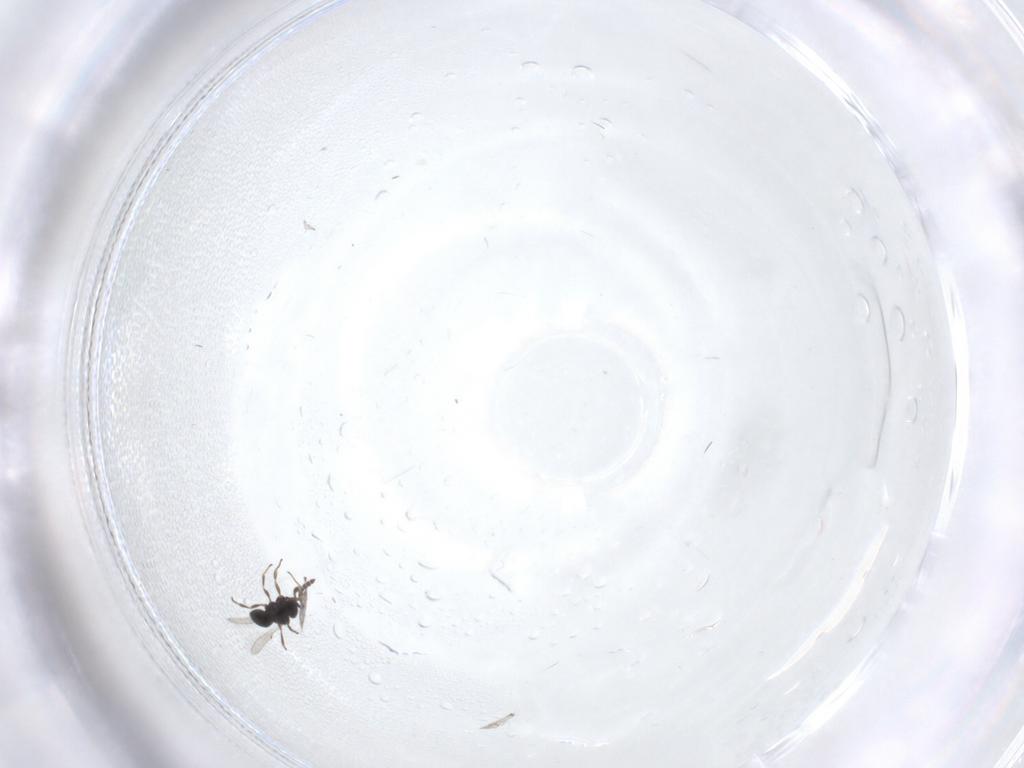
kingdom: Animalia
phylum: Arthropoda
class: Insecta
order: Hymenoptera
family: Scelionidae
